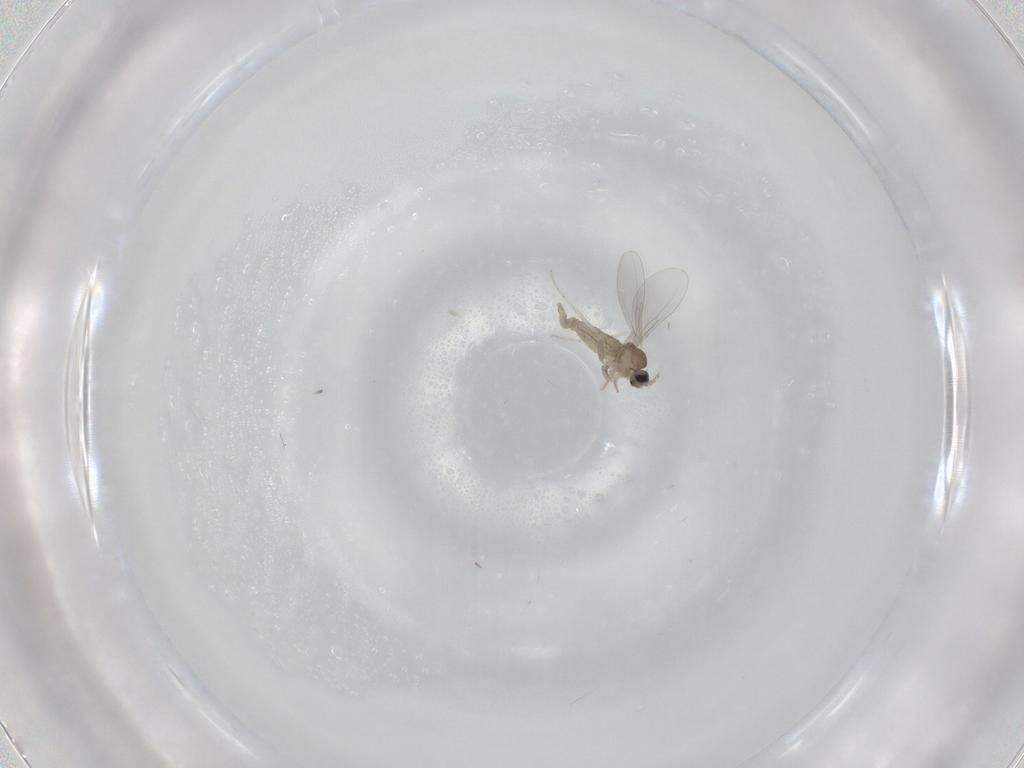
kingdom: Animalia
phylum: Arthropoda
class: Insecta
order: Diptera
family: Cecidomyiidae
